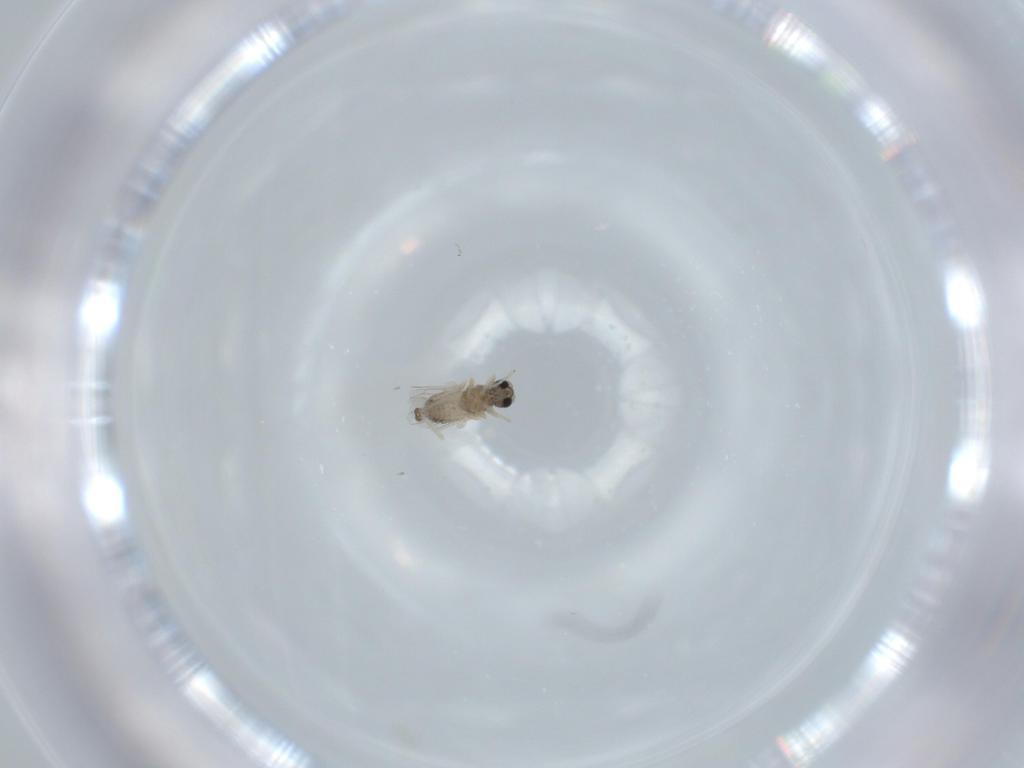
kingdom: Animalia
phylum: Arthropoda
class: Insecta
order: Diptera
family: Cecidomyiidae
